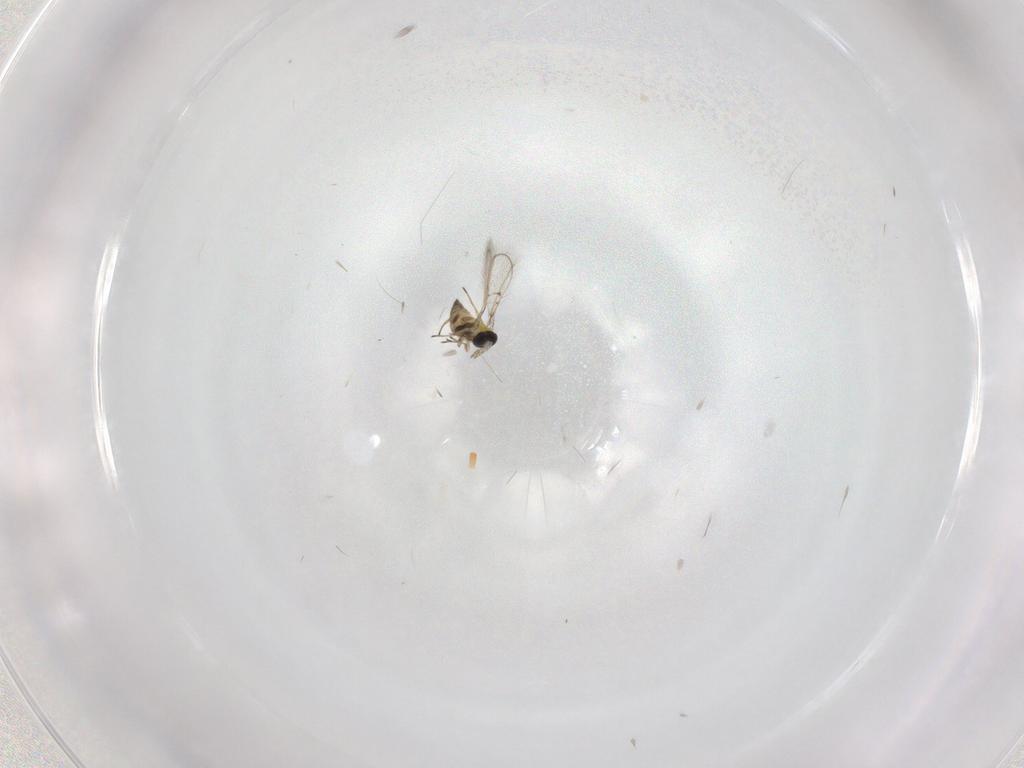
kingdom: Animalia
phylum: Arthropoda
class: Insecta
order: Hymenoptera
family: Trichogrammatidae
